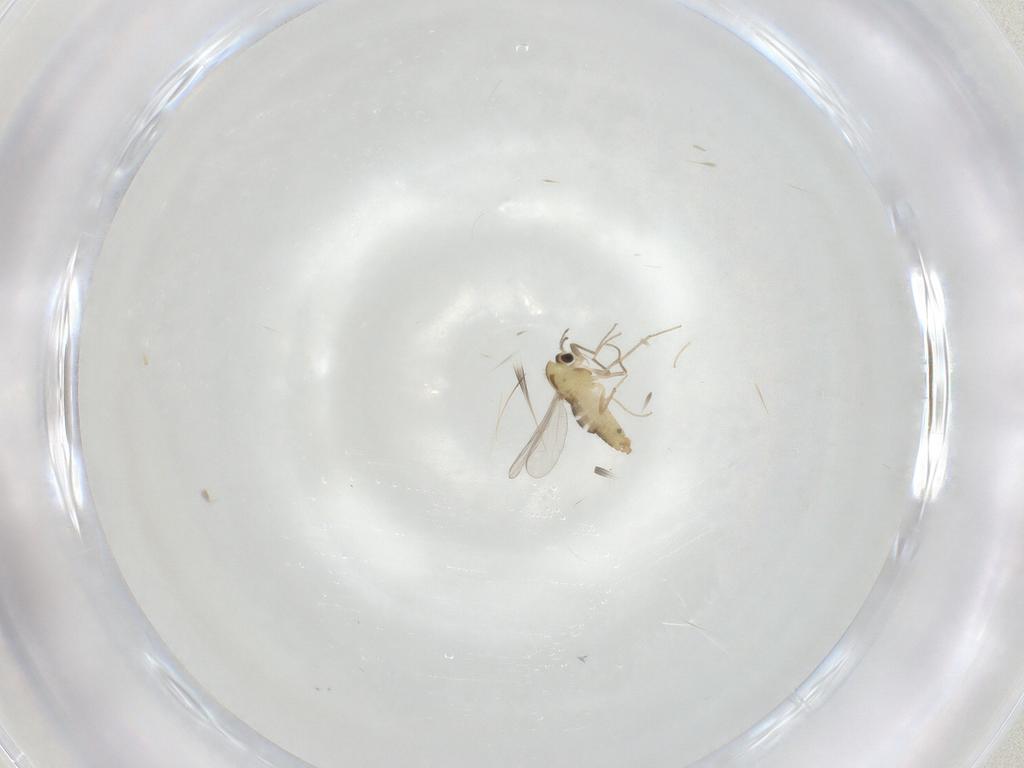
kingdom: Animalia
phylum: Arthropoda
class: Insecta
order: Diptera
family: Chironomidae
